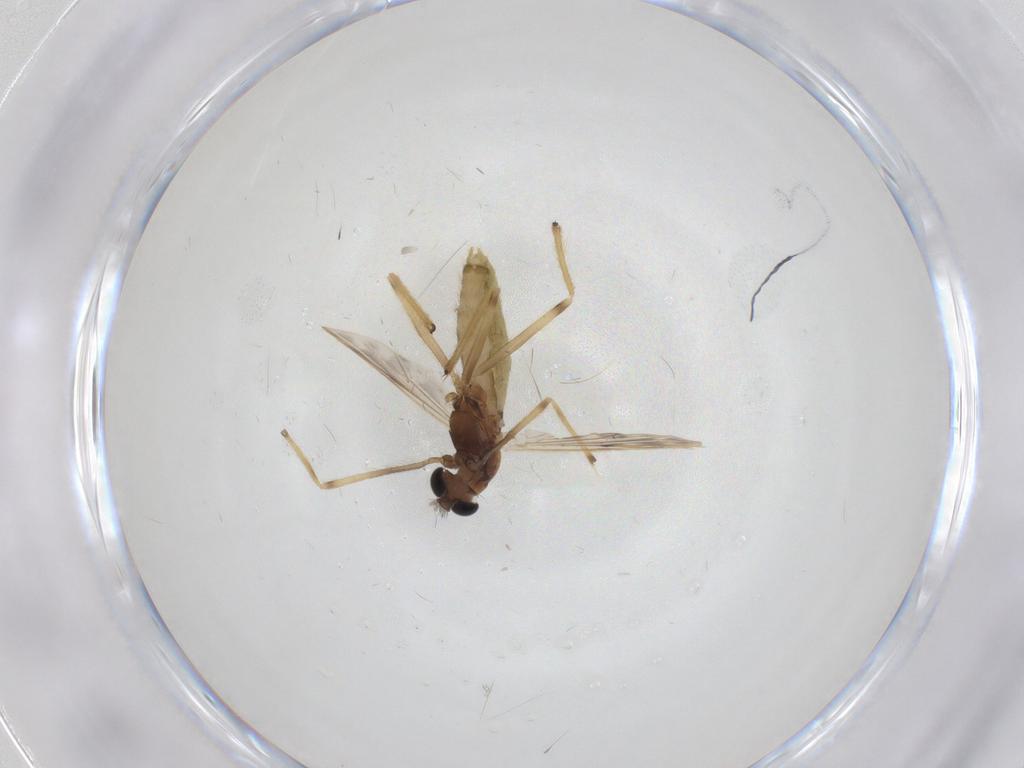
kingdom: Animalia
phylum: Arthropoda
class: Insecta
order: Diptera
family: Chironomidae
